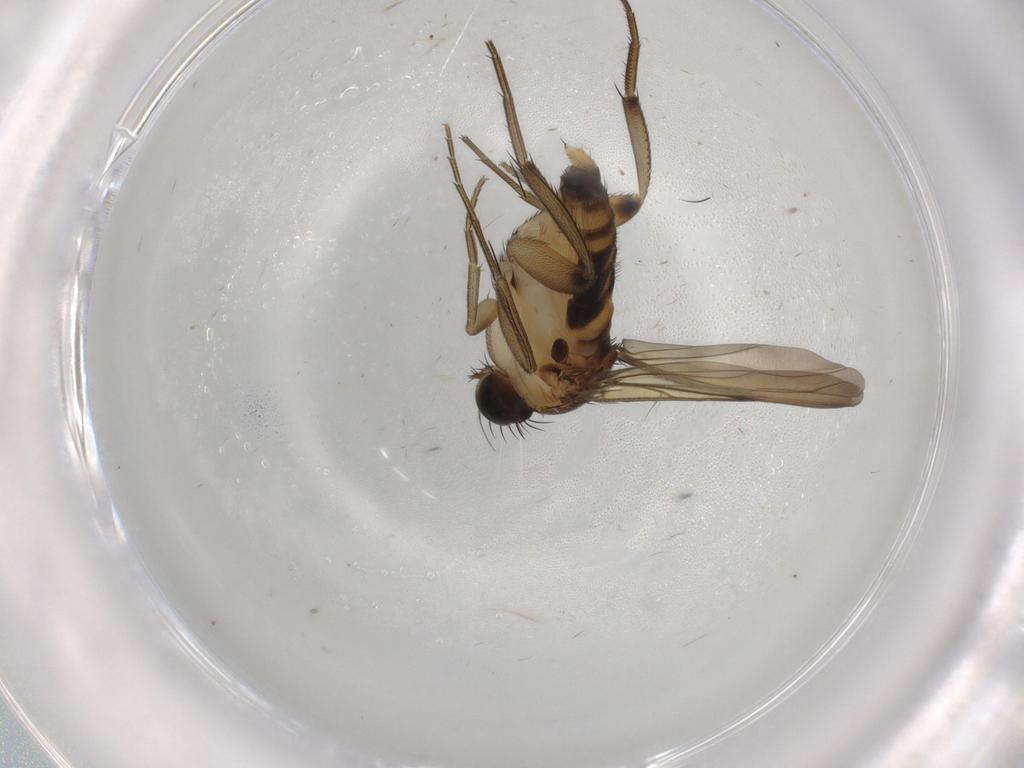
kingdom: Animalia
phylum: Arthropoda
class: Insecta
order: Diptera
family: Phoridae
